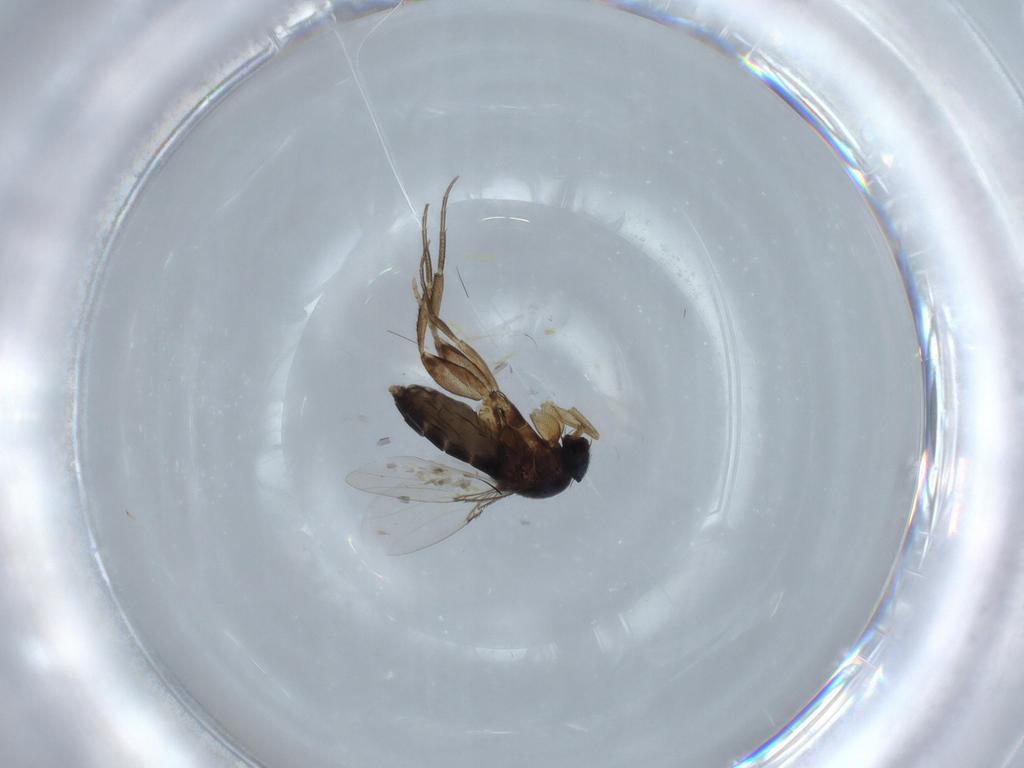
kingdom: Animalia
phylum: Arthropoda
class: Insecta
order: Diptera
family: Phoridae
